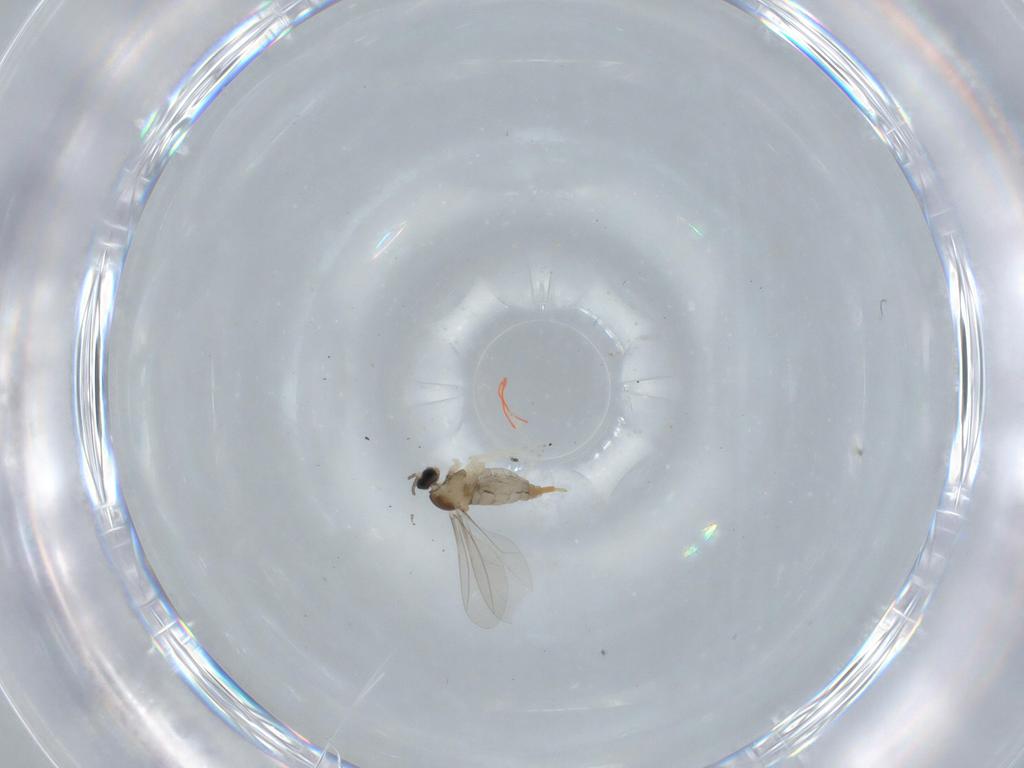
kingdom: Animalia
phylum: Arthropoda
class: Insecta
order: Diptera
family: Cecidomyiidae
